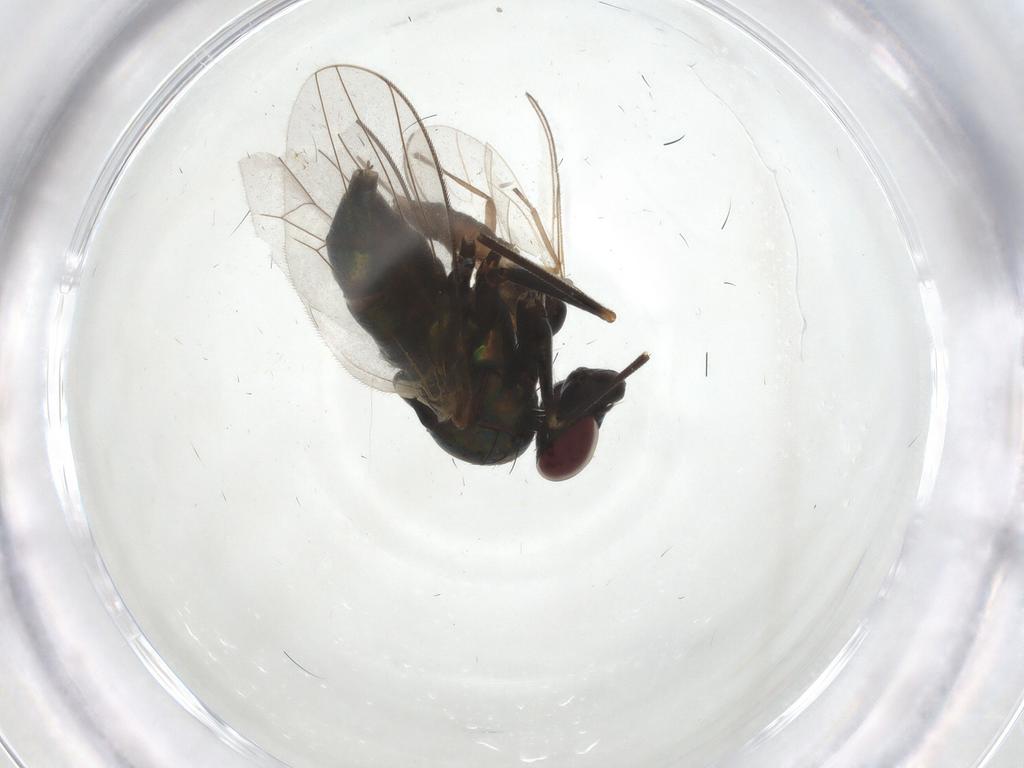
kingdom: Animalia
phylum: Arthropoda
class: Insecta
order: Diptera
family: Dolichopodidae
